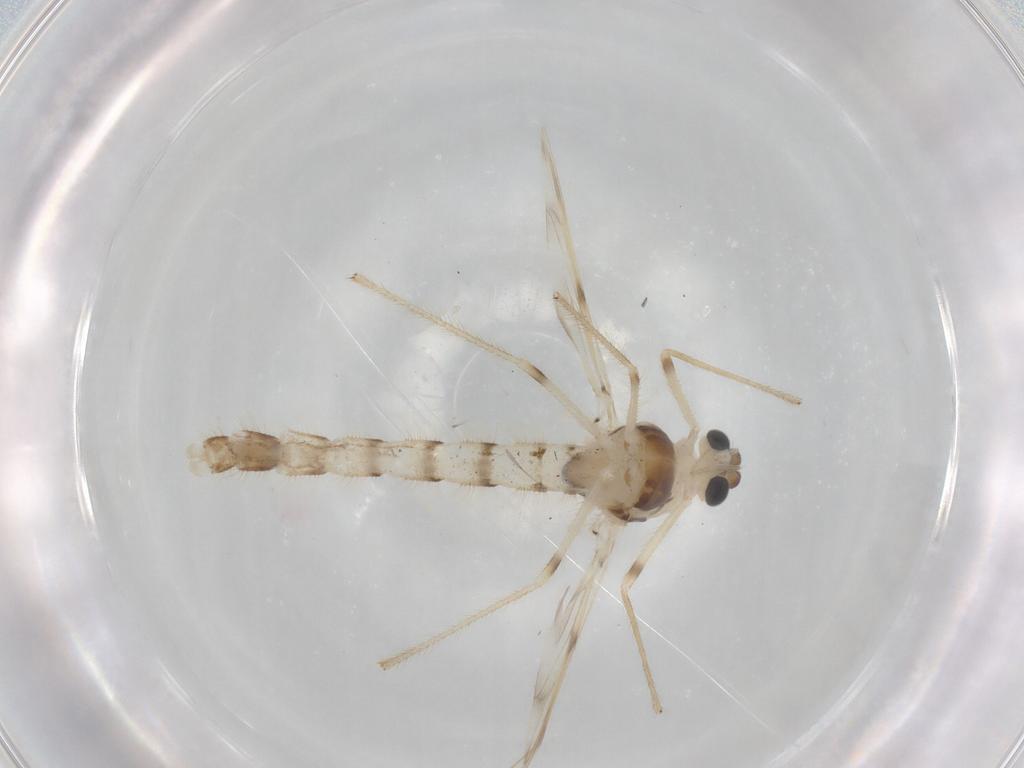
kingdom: Animalia
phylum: Arthropoda
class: Insecta
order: Diptera
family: Chironomidae
